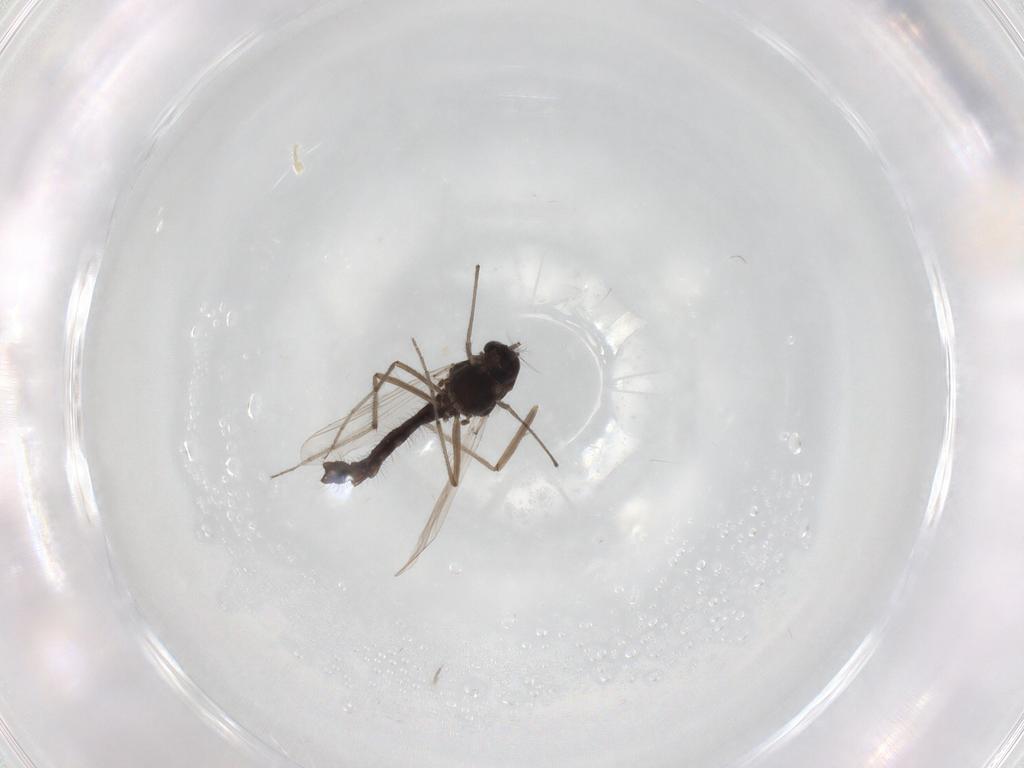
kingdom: Animalia
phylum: Arthropoda
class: Insecta
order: Diptera
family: Chironomidae
